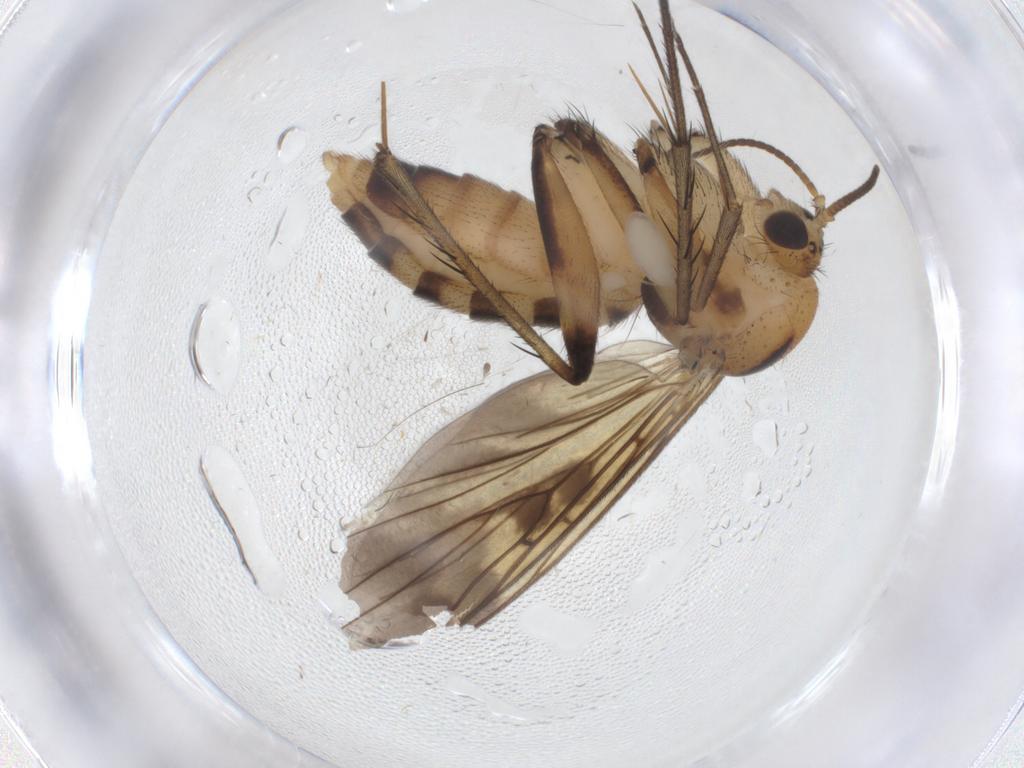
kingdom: Animalia
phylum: Arthropoda
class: Insecta
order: Diptera
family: Mycetophilidae
